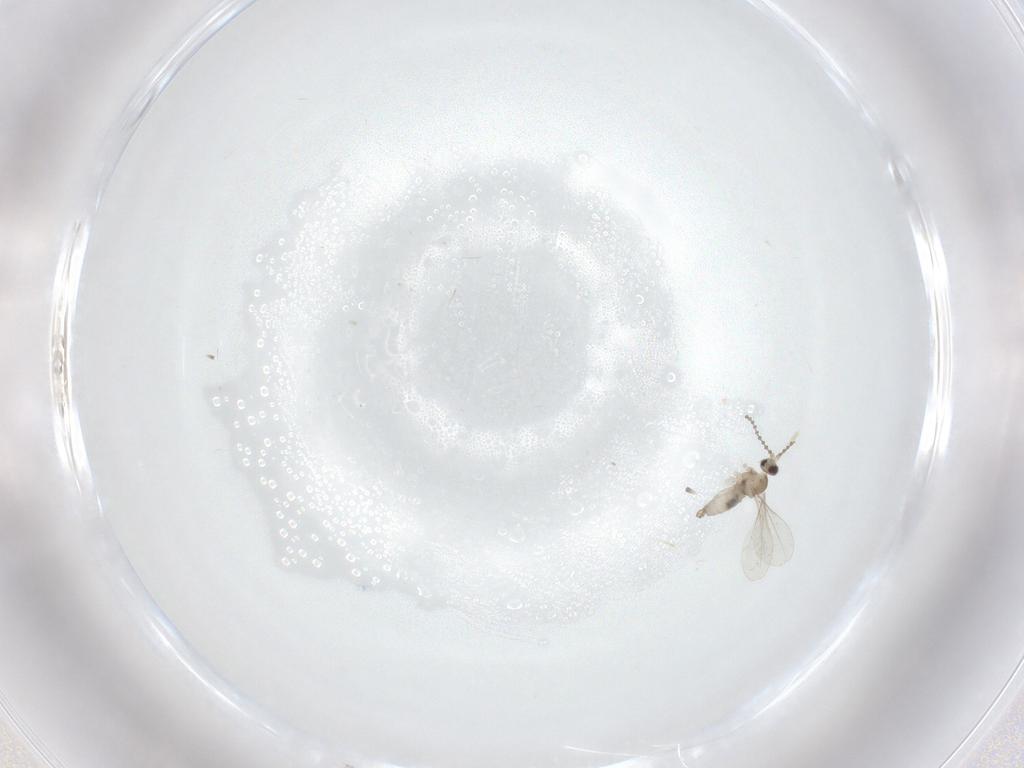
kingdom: Animalia
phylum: Arthropoda
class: Insecta
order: Diptera
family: Cecidomyiidae
